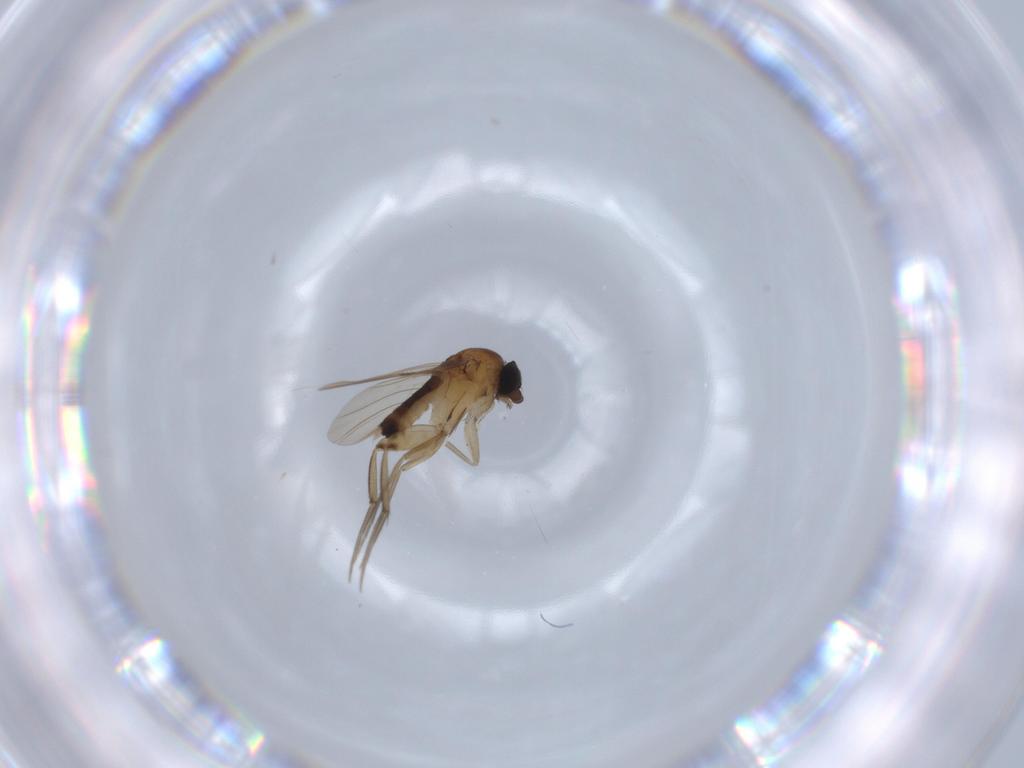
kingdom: Animalia
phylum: Arthropoda
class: Insecta
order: Diptera
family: Phoridae
